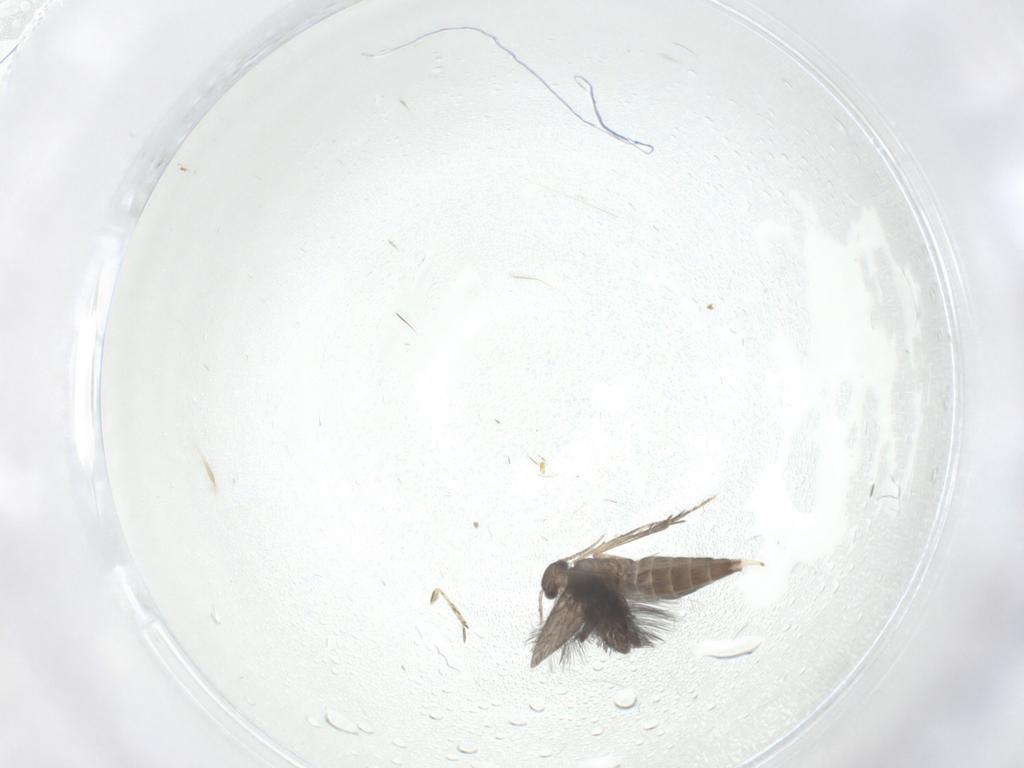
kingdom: Animalia
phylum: Arthropoda
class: Insecta
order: Trichoptera
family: Hydroptilidae
